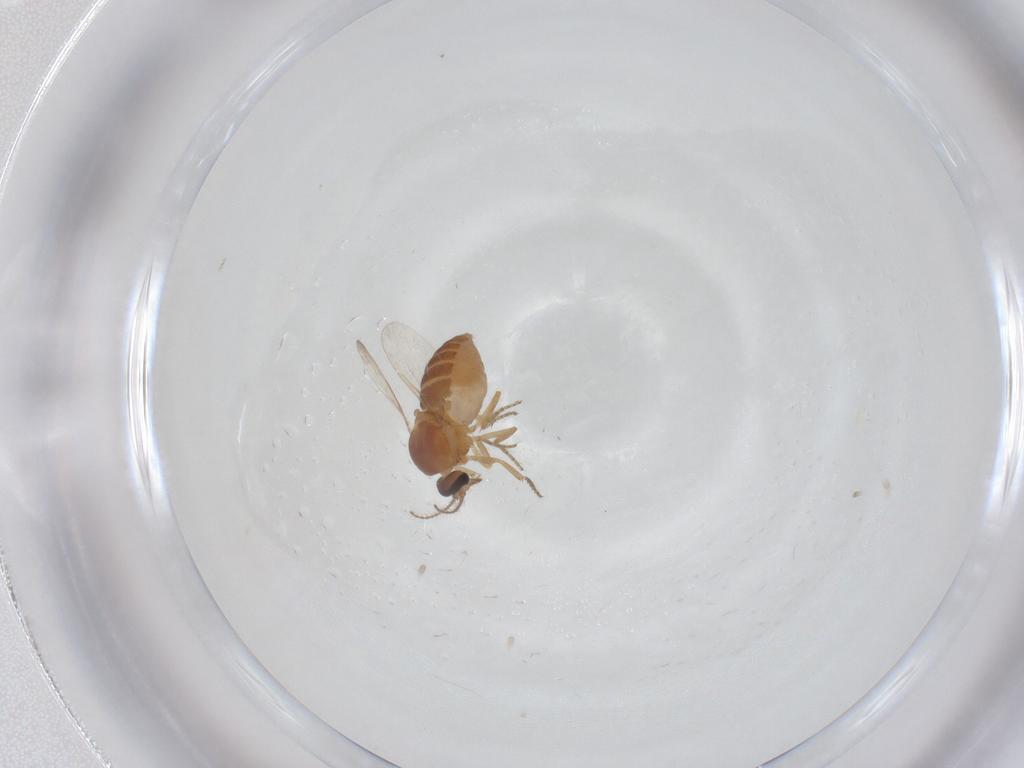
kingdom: Animalia
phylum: Arthropoda
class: Insecta
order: Diptera
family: Ceratopogonidae
